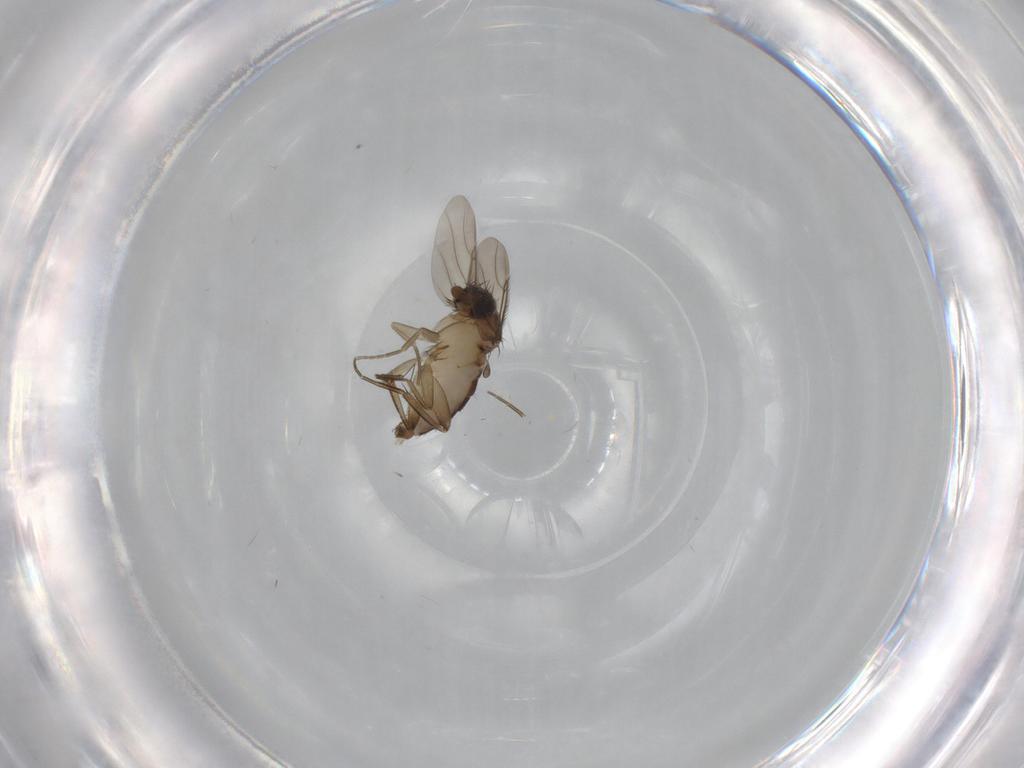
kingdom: Animalia
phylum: Arthropoda
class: Insecta
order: Diptera
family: Phoridae
